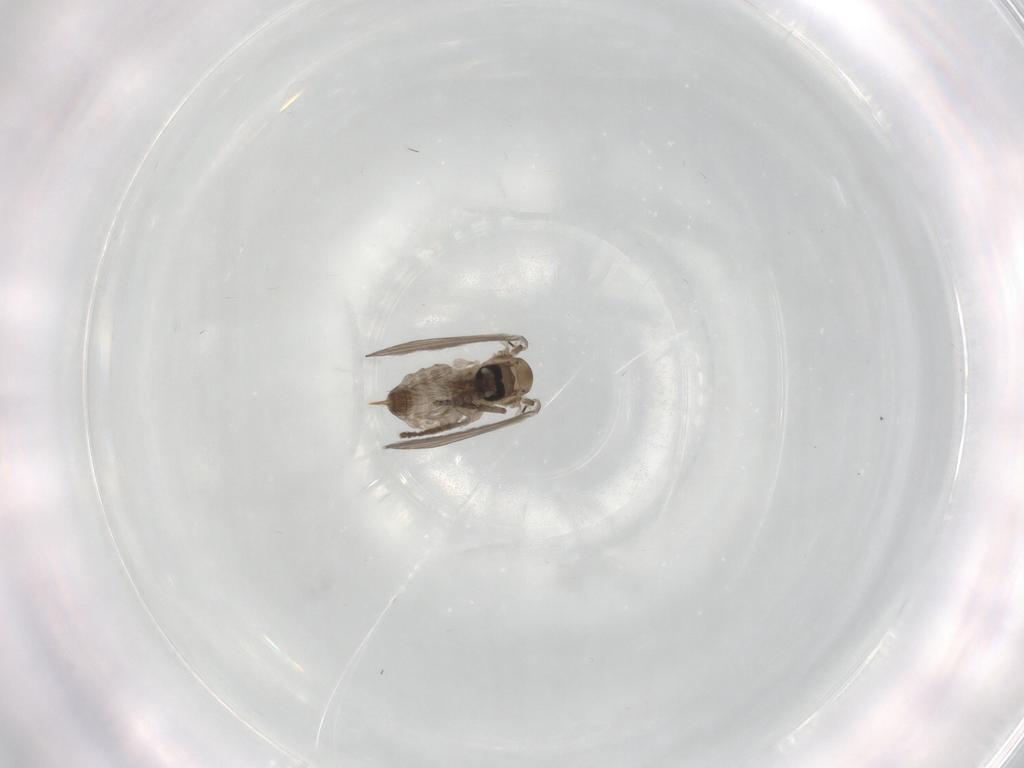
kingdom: Animalia
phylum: Arthropoda
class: Insecta
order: Diptera
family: Psychodidae
